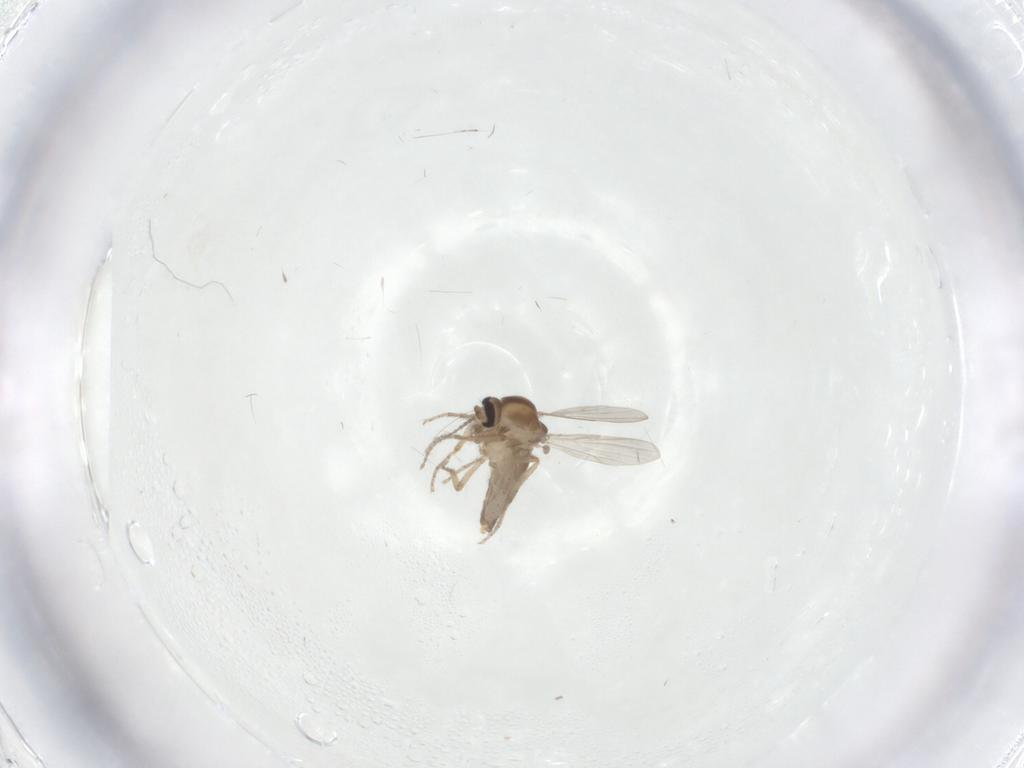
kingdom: Animalia
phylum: Arthropoda
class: Insecta
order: Diptera
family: Ceratopogonidae
